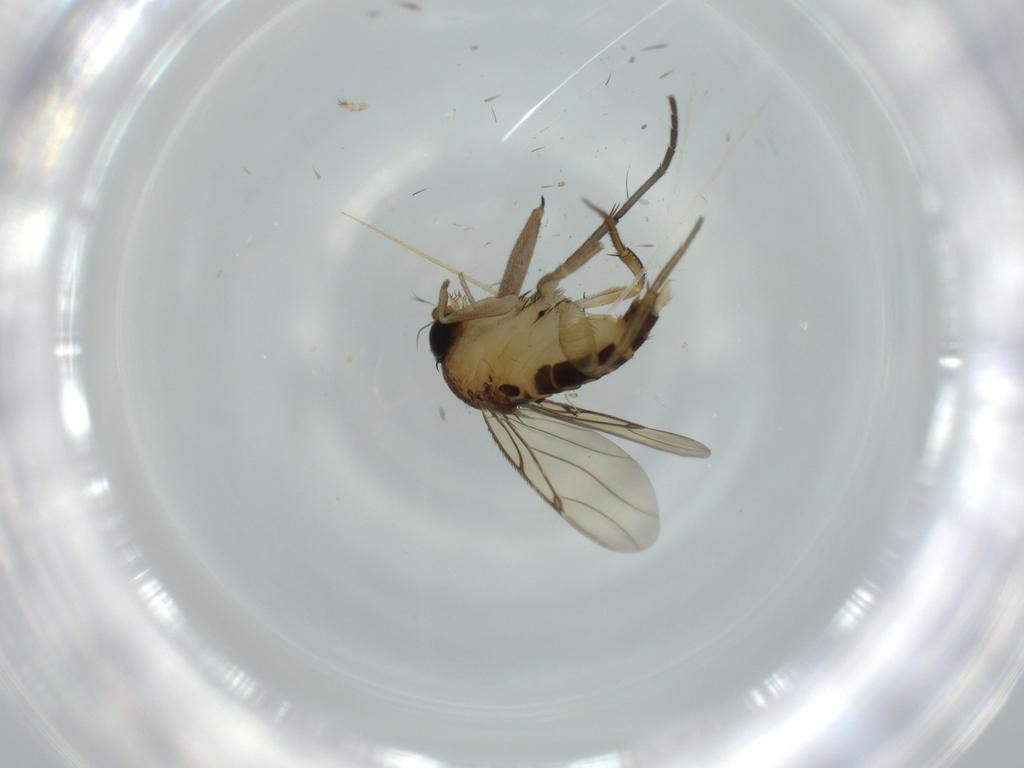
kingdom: Animalia
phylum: Arthropoda
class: Insecta
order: Diptera
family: Sciaridae
